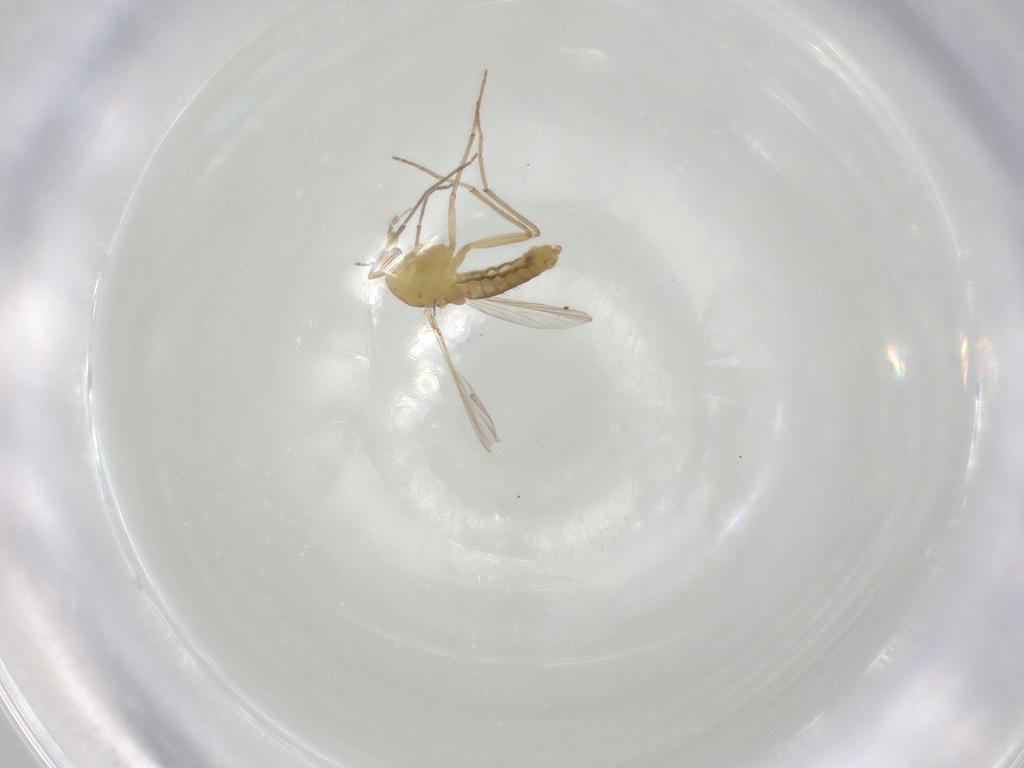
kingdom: Animalia
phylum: Arthropoda
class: Insecta
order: Diptera
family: Chironomidae
